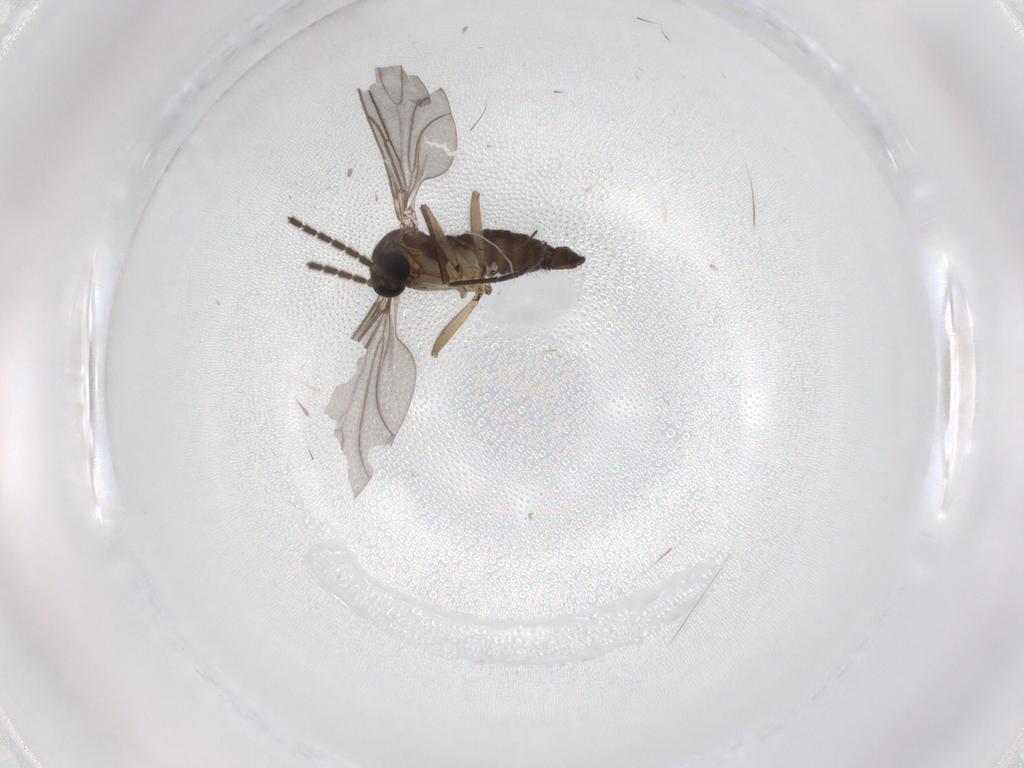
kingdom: Animalia
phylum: Arthropoda
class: Insecta
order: Diptera
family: Sciaridae
